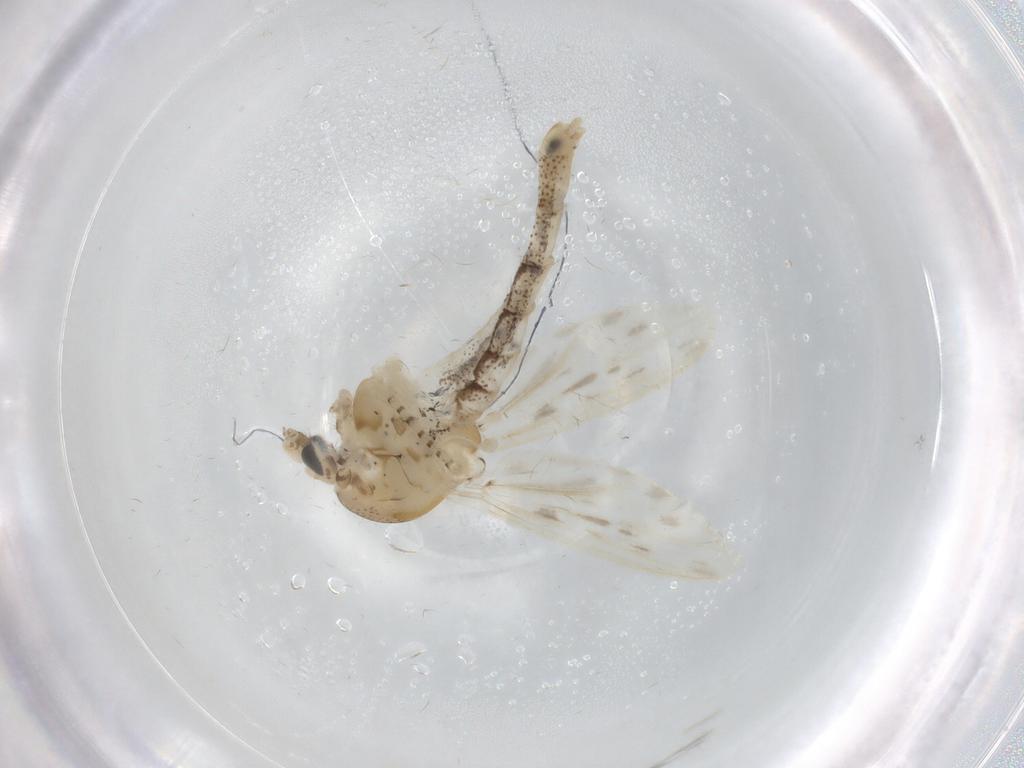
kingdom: Animalia
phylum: Arthropoda
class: Insecta
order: Diptera
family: Chaoboridae
